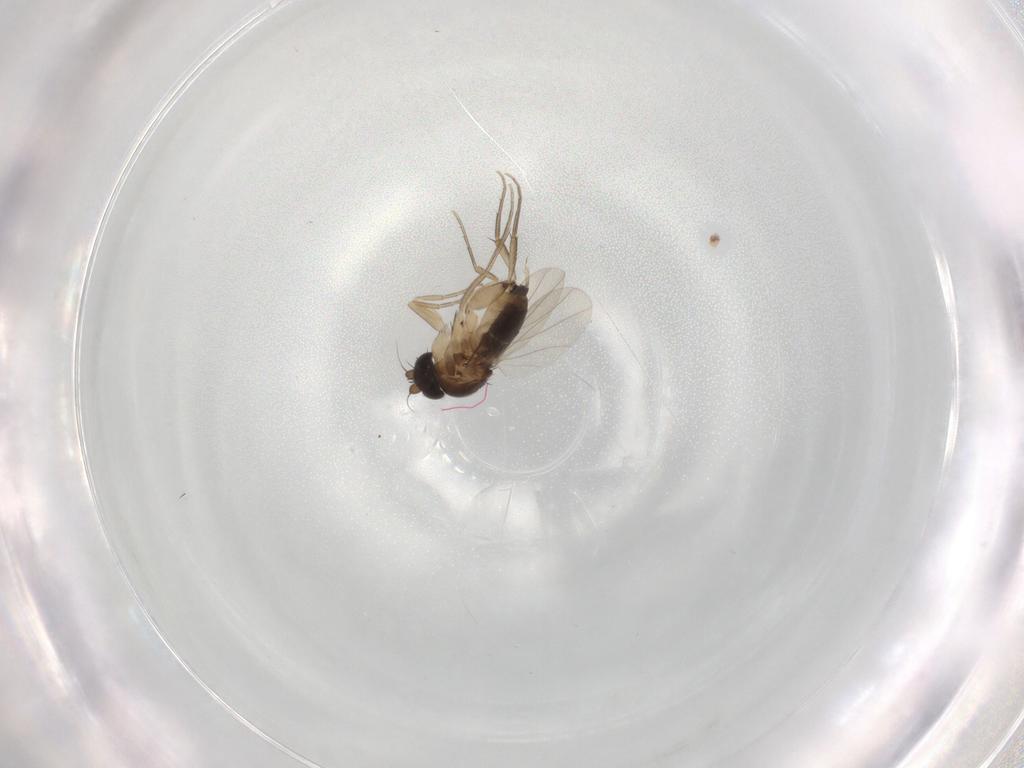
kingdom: Animalia
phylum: Arthropoda
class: Insecta
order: Diptera
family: Phoridae
